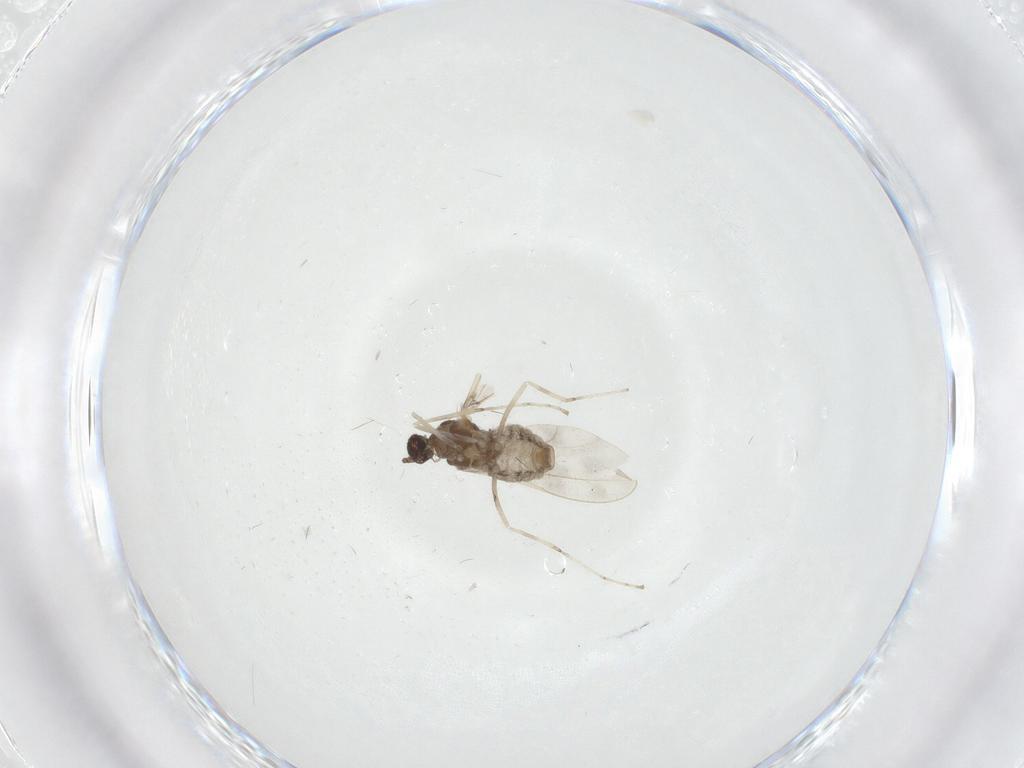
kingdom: Animalia
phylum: Arthropoda
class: Insecta
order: Diptera
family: Cecidomyiidae
